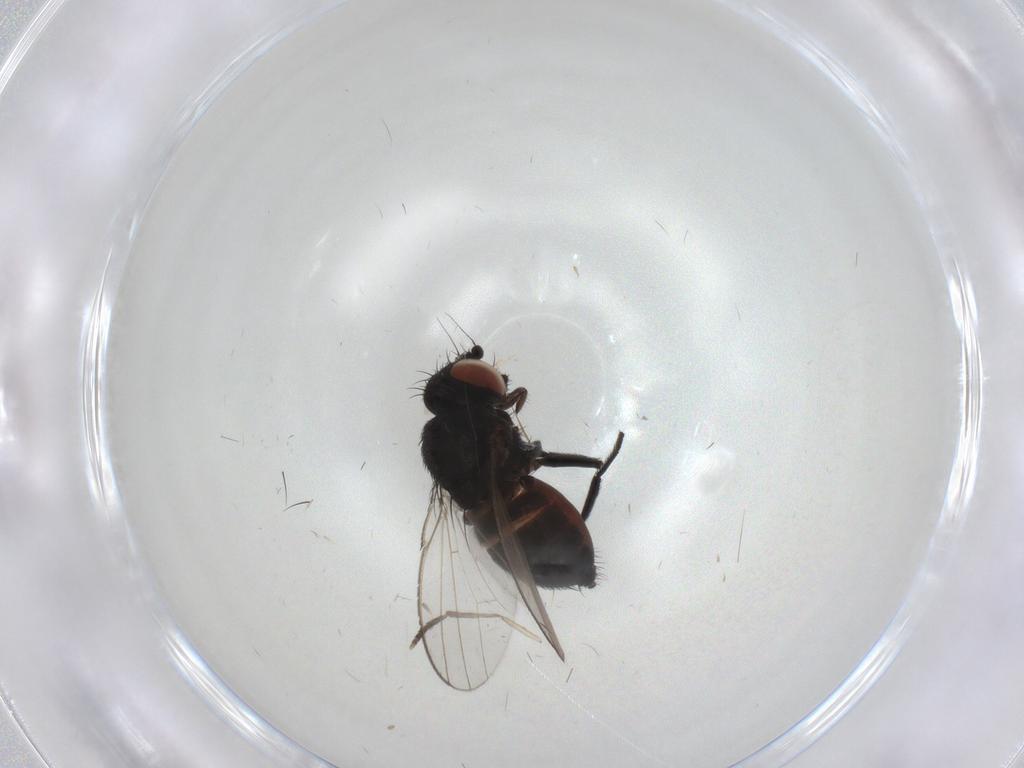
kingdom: Animalia
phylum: Arthropoda
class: Insecta
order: Diptera
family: Milichiidae
